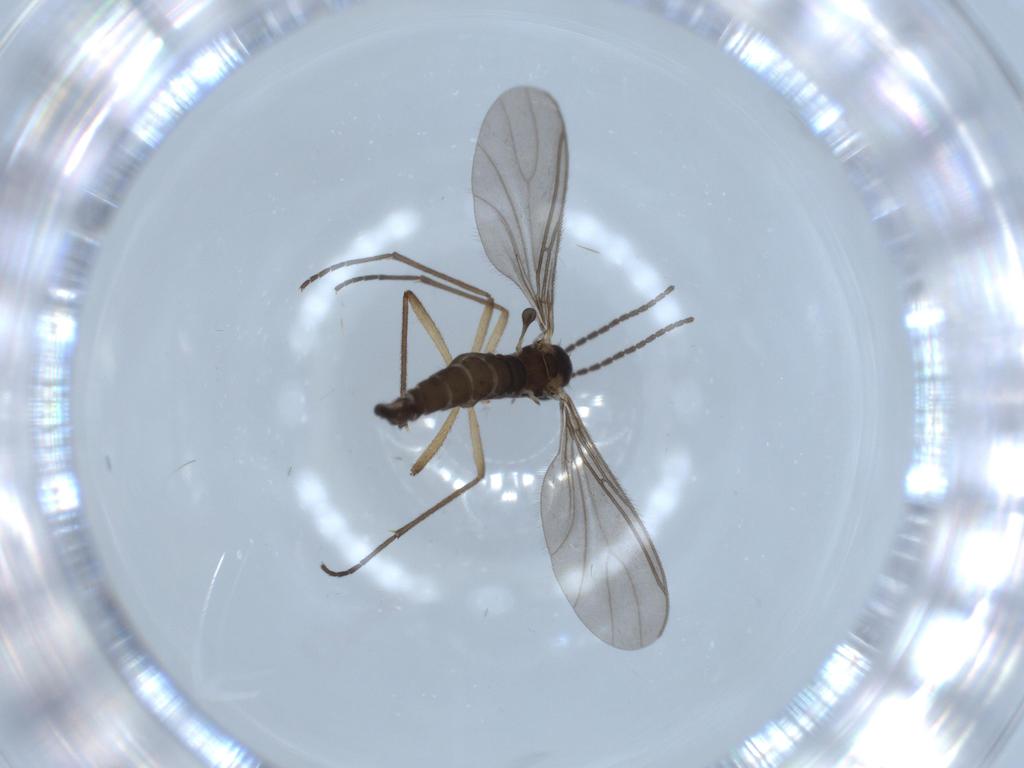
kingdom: Animalia
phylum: Arthropoda
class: Insecta
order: Diptera
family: Sciaridae
